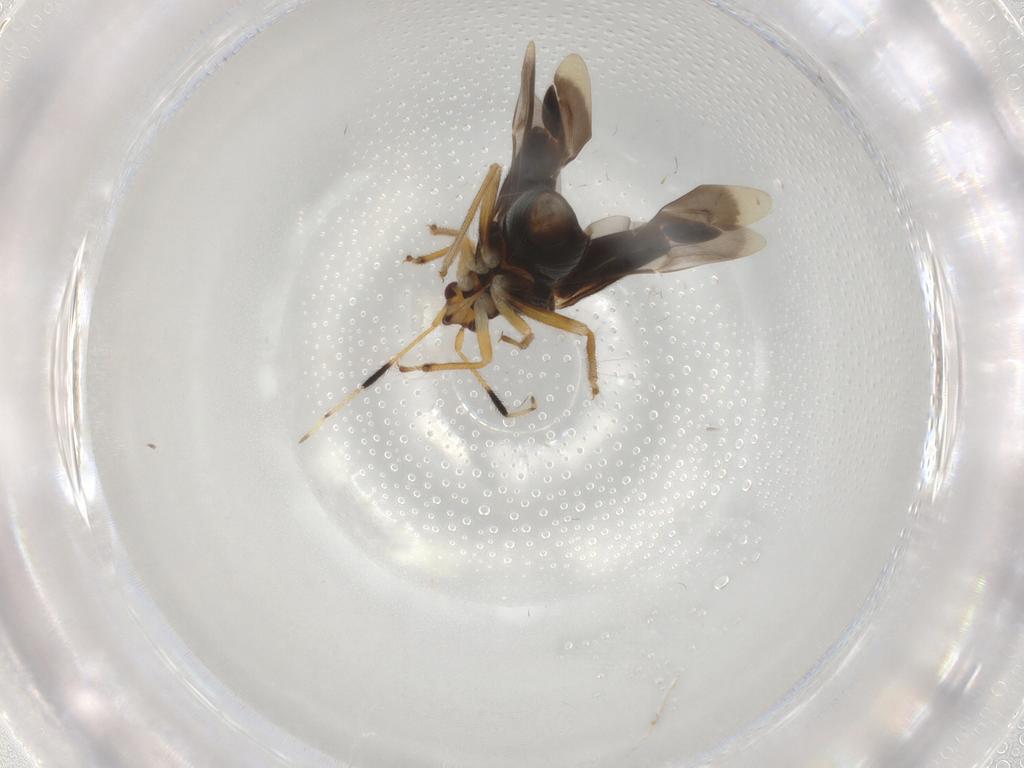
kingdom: Animalia
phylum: Arthropoda
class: Insecta
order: Hemiptera
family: Miridae
